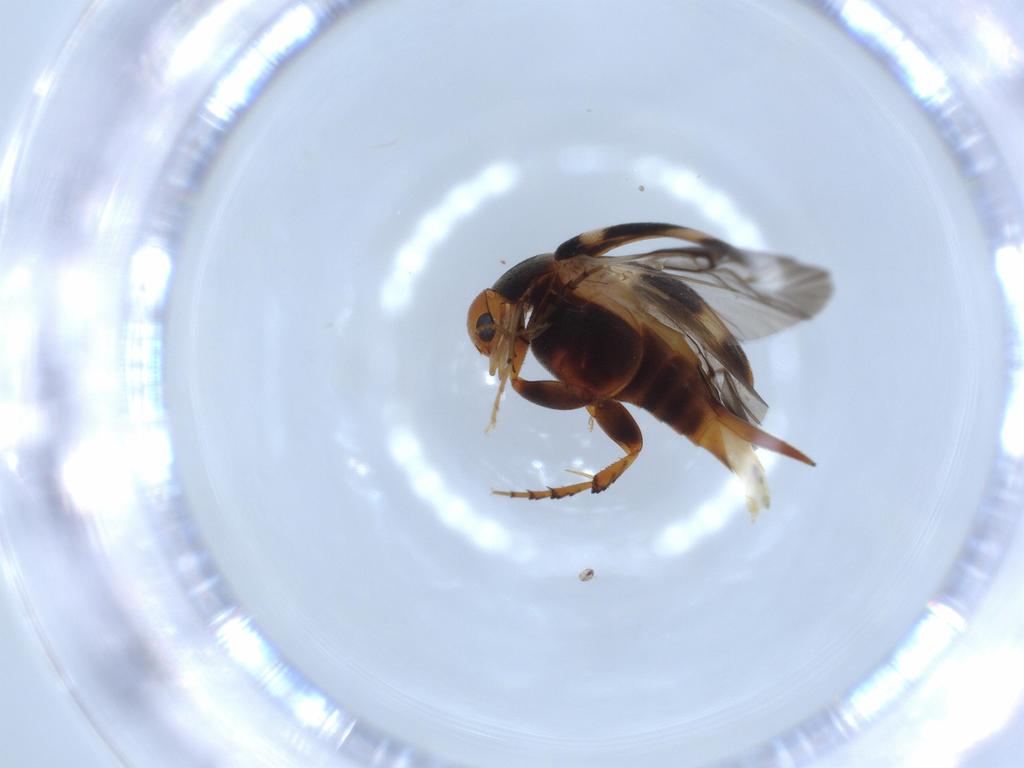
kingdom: Animalia
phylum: Arthropoda
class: Insecta
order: Coleoptera
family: Mordellidae
